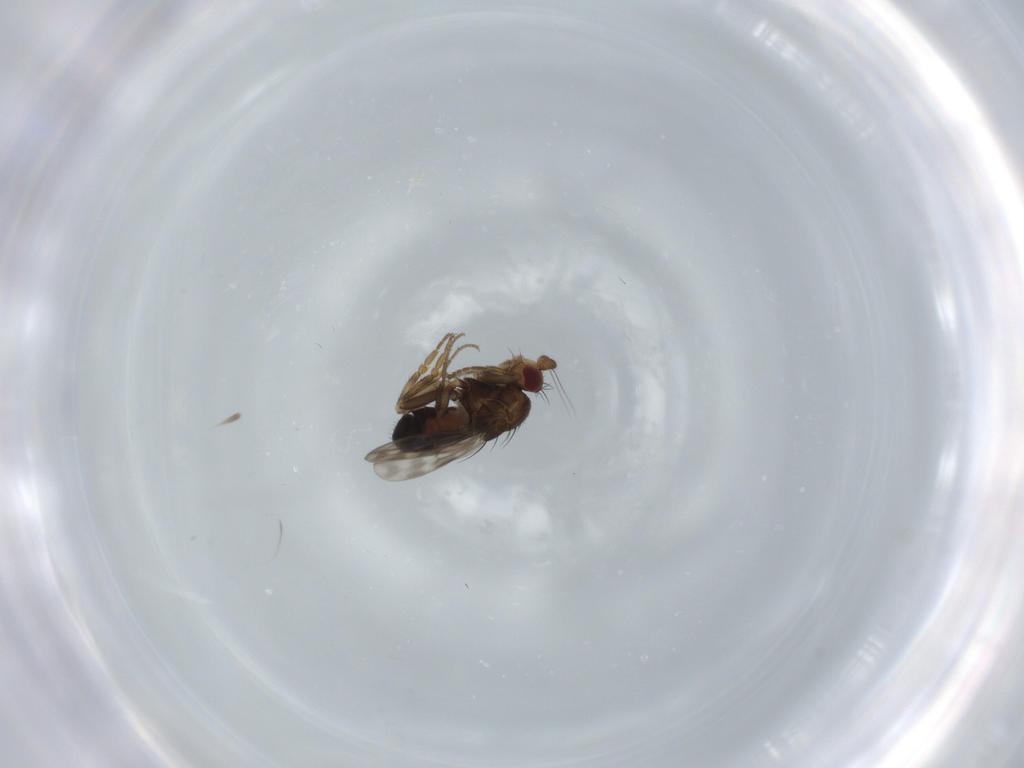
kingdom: Animalia
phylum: Arthropoda
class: Insecta
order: Diptera
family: Sphaeroceridae
